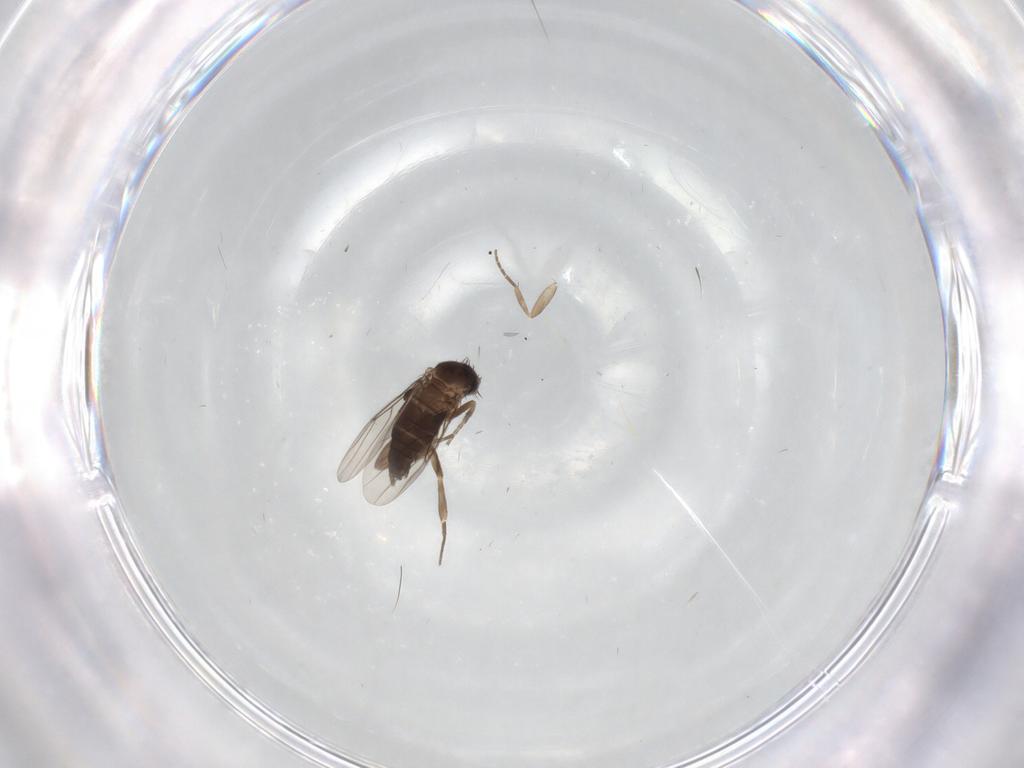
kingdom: Animalia
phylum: Arthropoda
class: Insecta
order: Diptera
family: Phoridae
